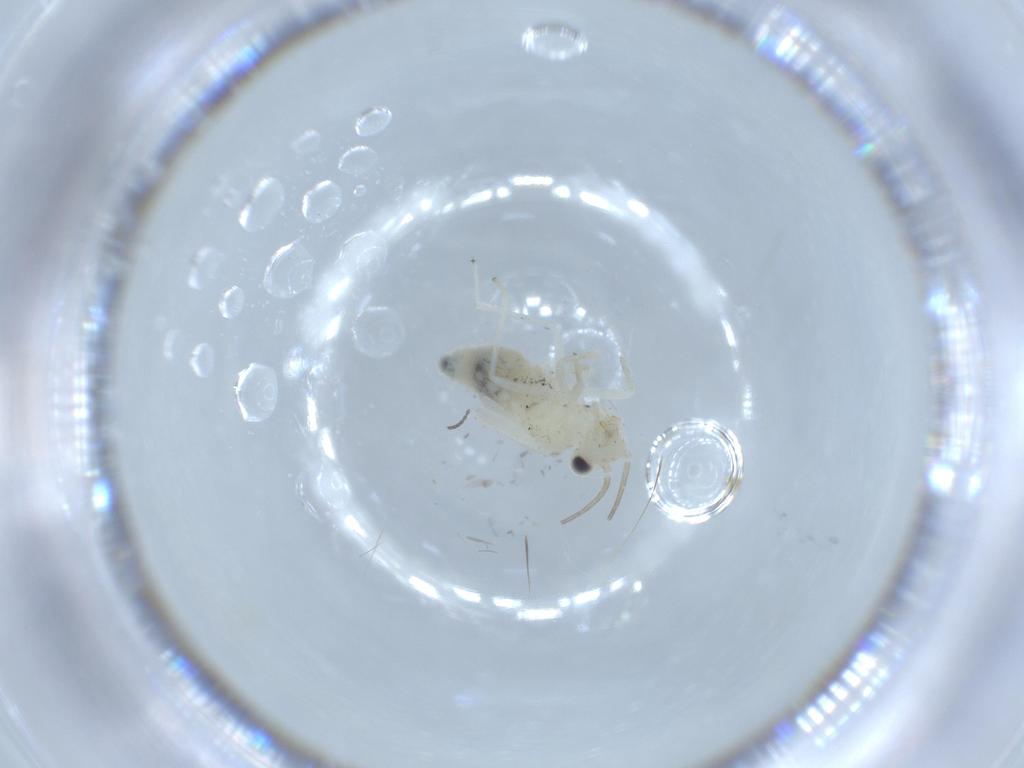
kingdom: Animalia
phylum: Arthropoda
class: Insecta
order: Psocodea
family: Caeciliusidae
